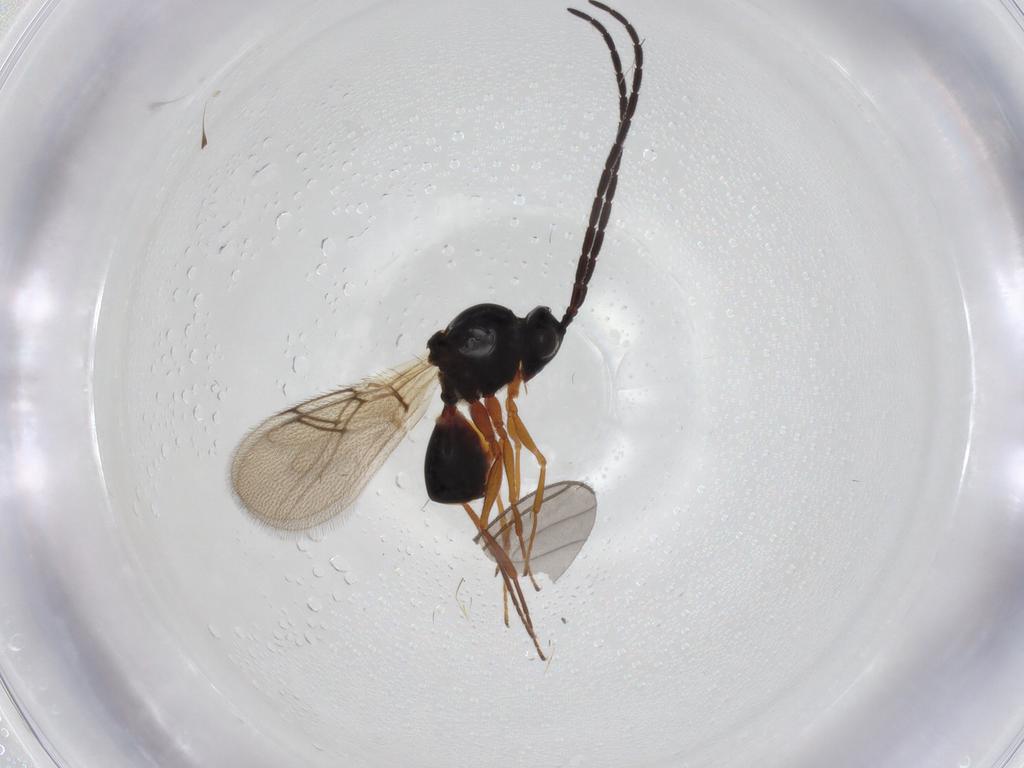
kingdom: Animalia
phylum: Arthropoda
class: Insecta
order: Hymenoptera
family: Figitidae
